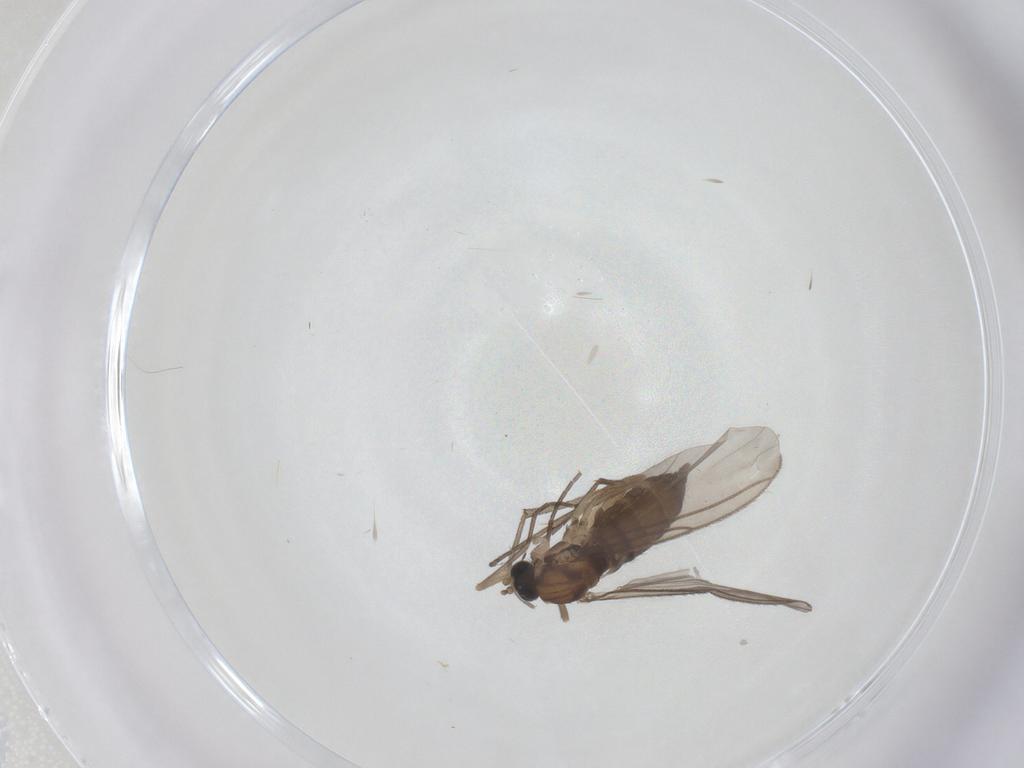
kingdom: Animalia
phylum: Arthropoda
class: Insecta
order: Diptera
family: Sciaridae
